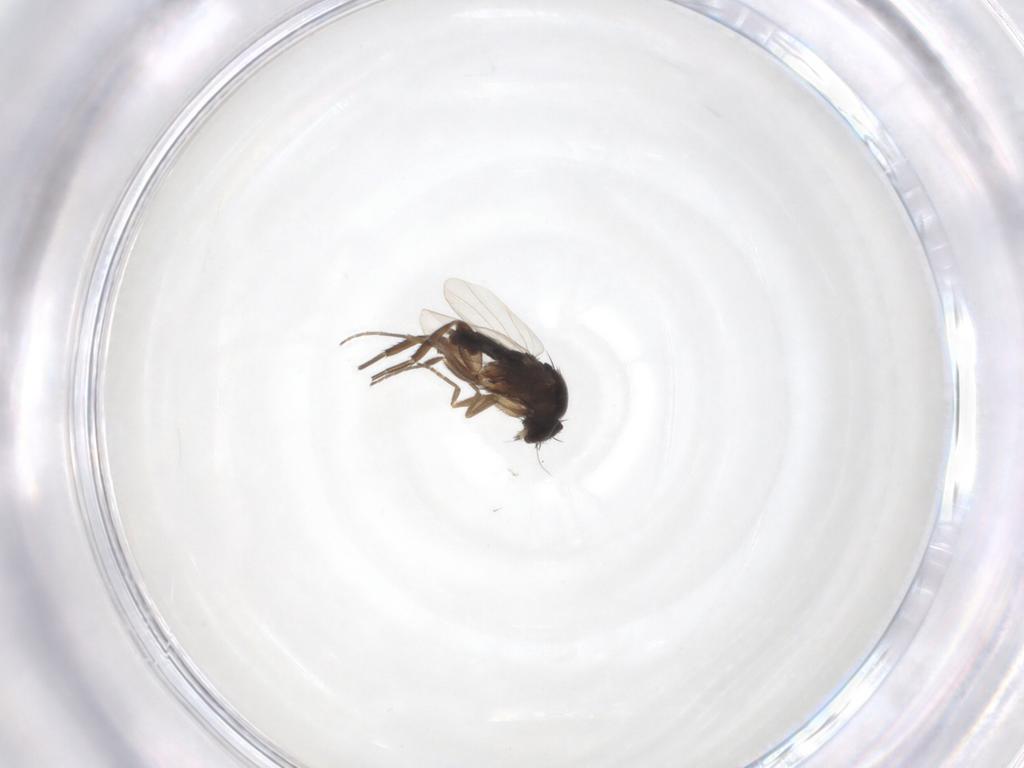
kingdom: Animalia
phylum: Arthropoda
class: Insecta
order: Diptera
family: Phoridae
